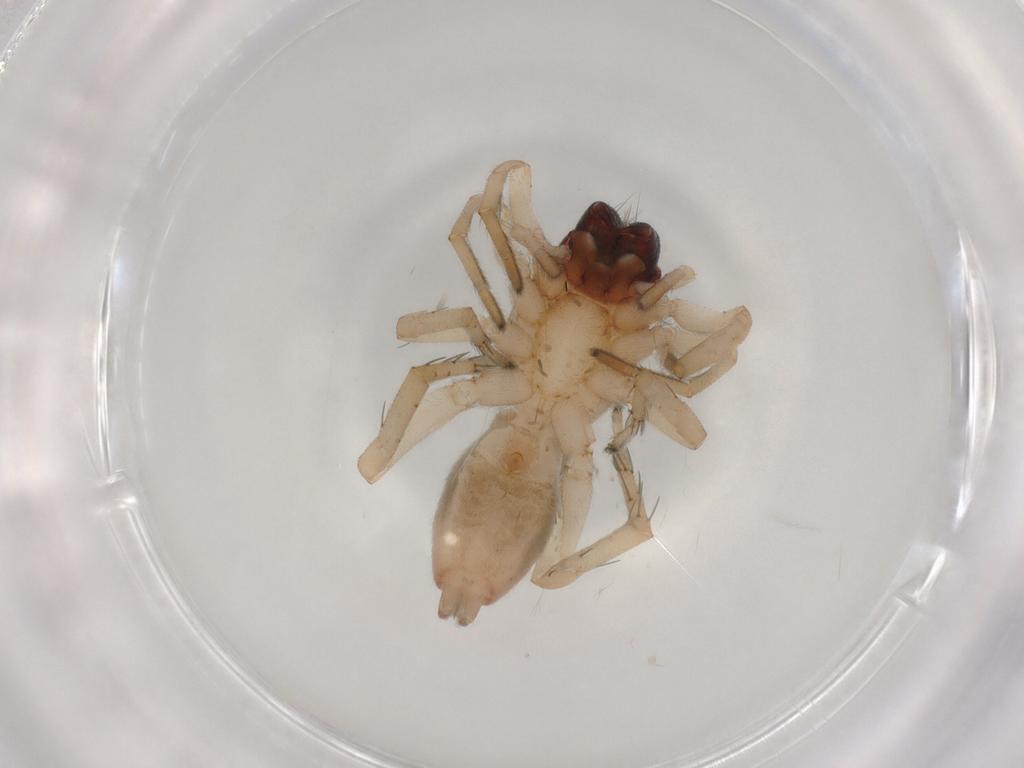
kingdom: Animalia
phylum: Arthropoda
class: Arachnida
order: Araneae
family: Clubionidae
